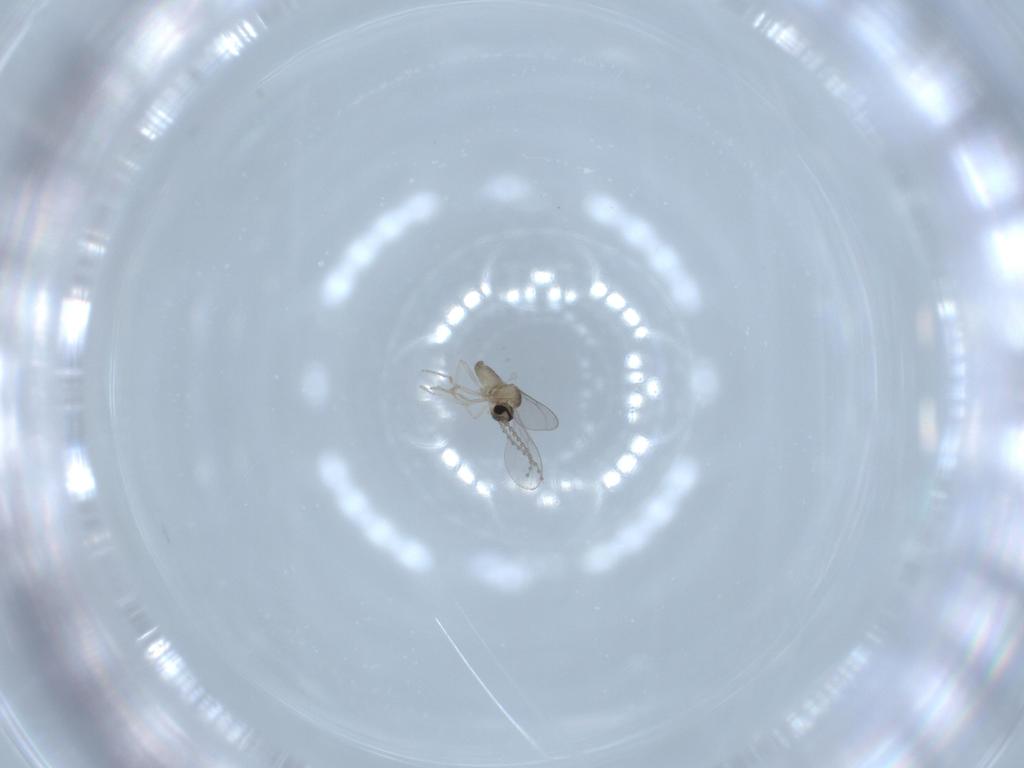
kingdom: Animalia
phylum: Arthropoda
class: Insecta
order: Diptera
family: Cecidomyiidae
